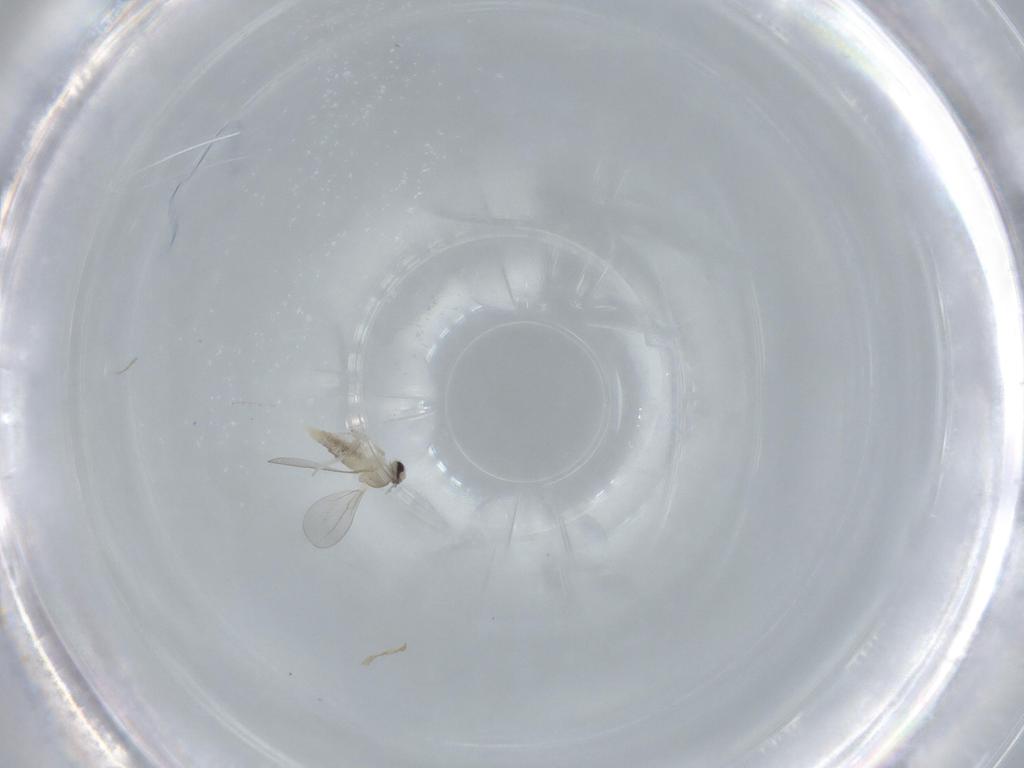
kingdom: Animalia
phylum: Arthropoda
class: Insecta
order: Diptera
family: Cecidomyiidae
